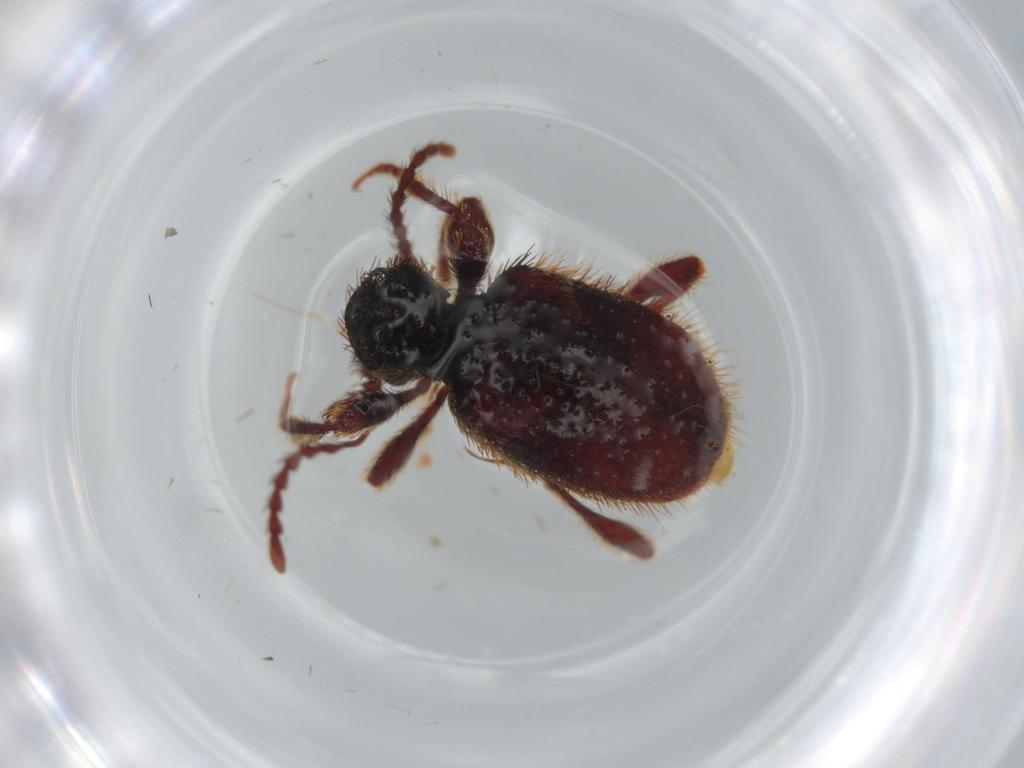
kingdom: Animalia
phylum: Arthropoda
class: Insecta
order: Coleoptera
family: Ptinidae
